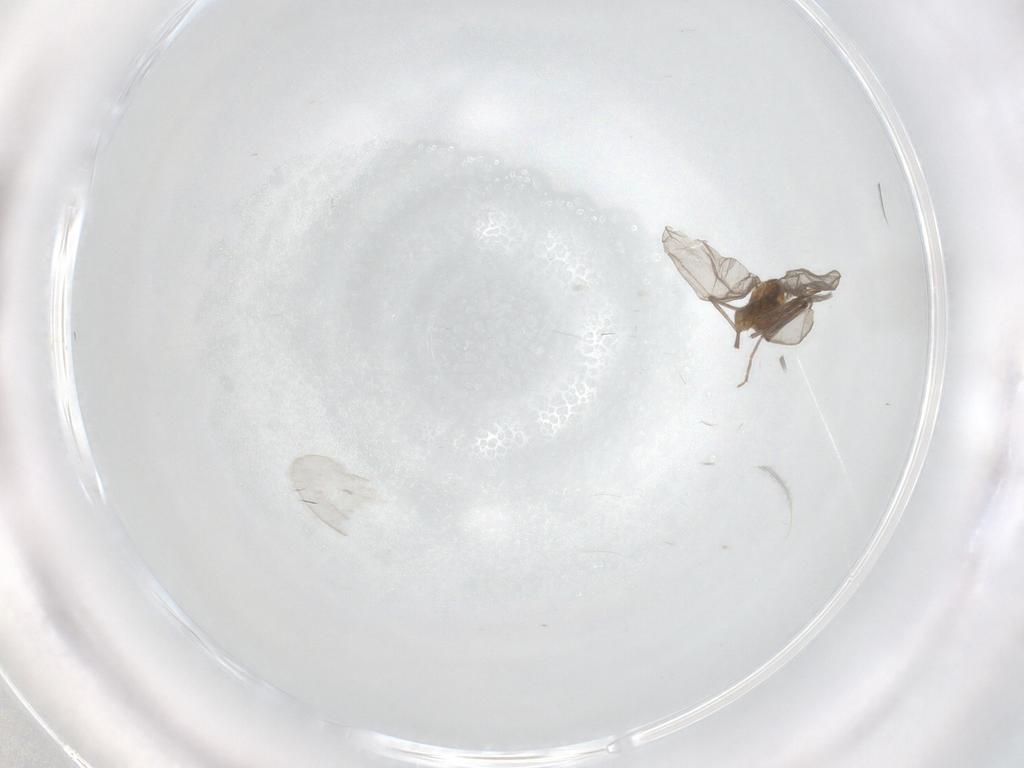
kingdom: Animalia
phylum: Arthropoda
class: Insecta
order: Diptera
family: Chironomidae
